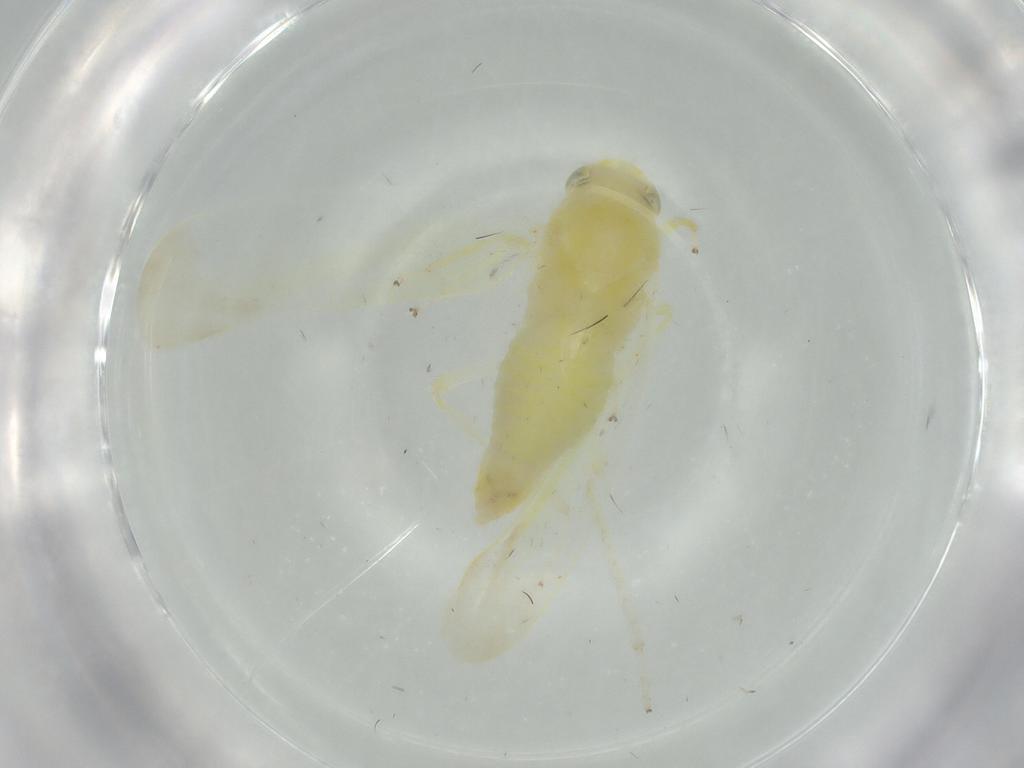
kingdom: Animalia
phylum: Arthropoda
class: Insecta
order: Hemiptera
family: Cicadellidae
